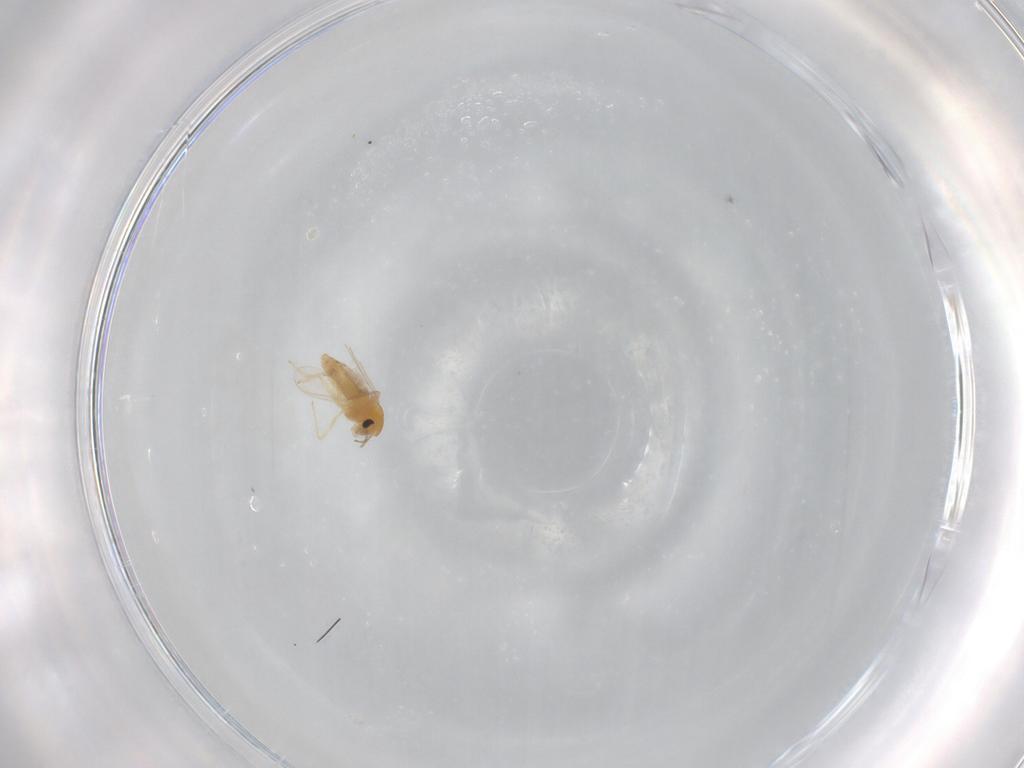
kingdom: Animalia
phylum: Arthropoda
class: Insecta
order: Diptera
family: Chironomidae
